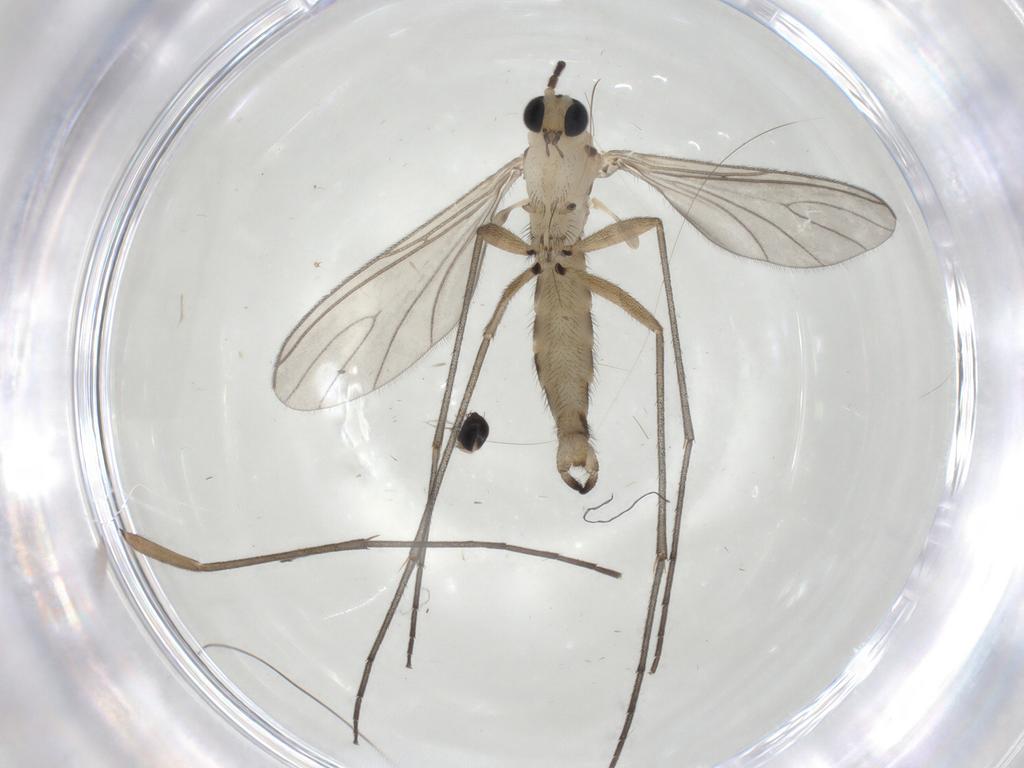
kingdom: Animalia
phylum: Arthropoda
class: Insecta
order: Diptera
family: Sciaridae
